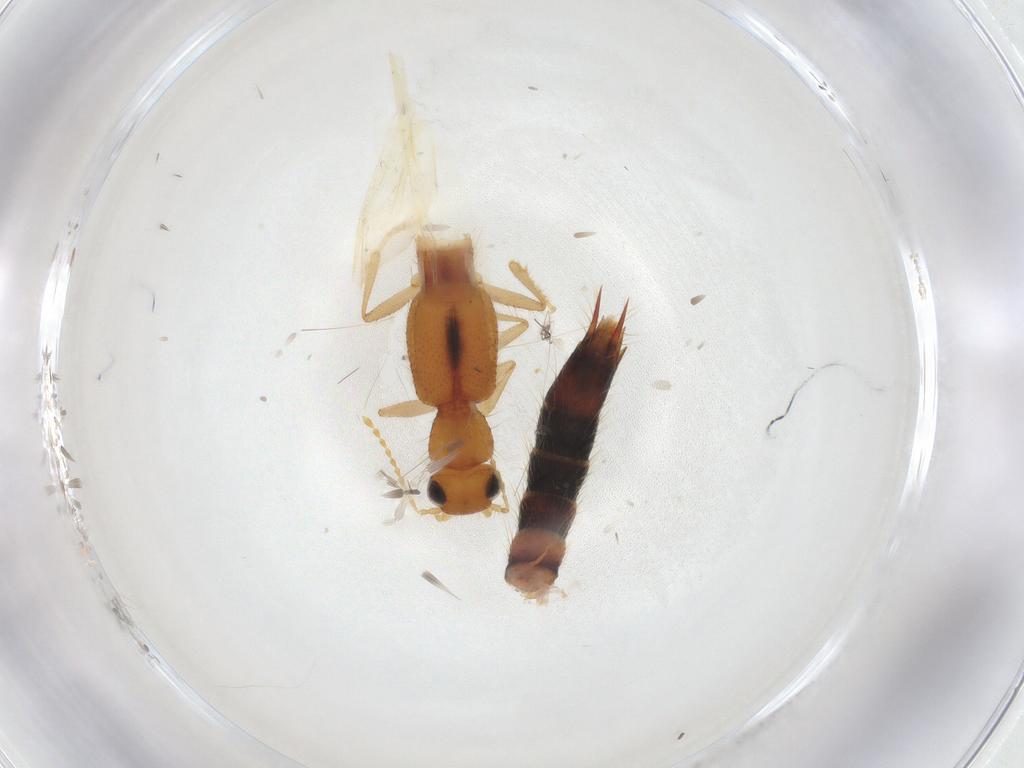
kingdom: Animalia
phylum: Arthropoda
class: Insecta
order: Coleoptera
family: Staphylinidae
